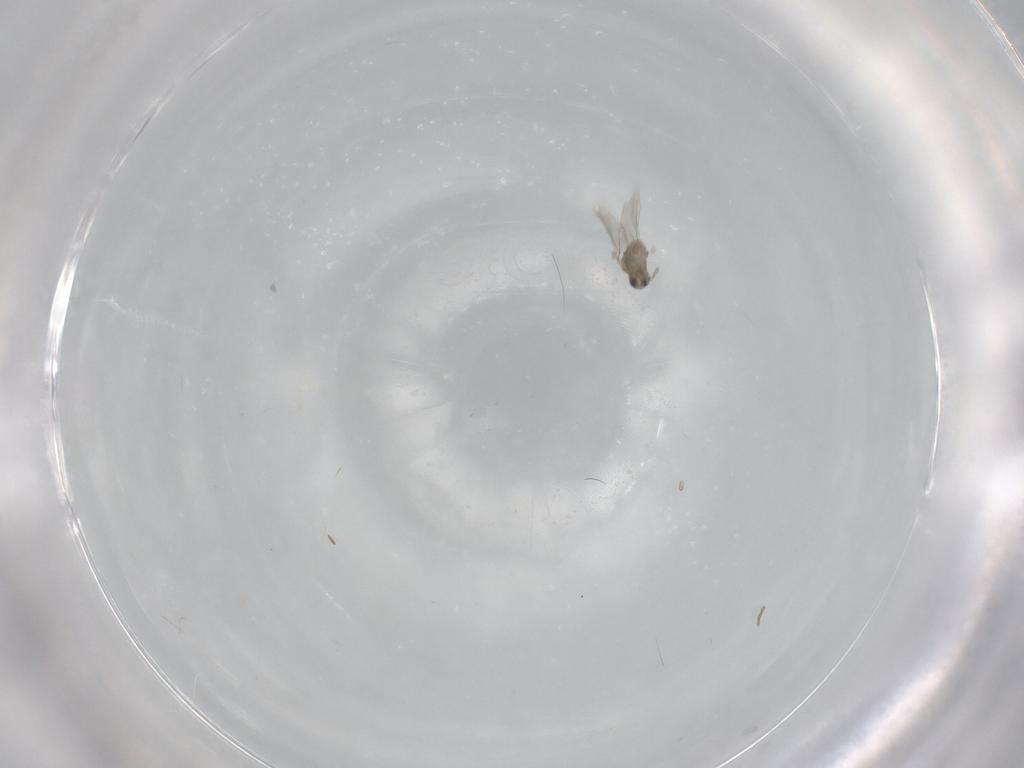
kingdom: Animalia
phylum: Arthropoda
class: Insecta
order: Diptera
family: Cecidomyiidae
